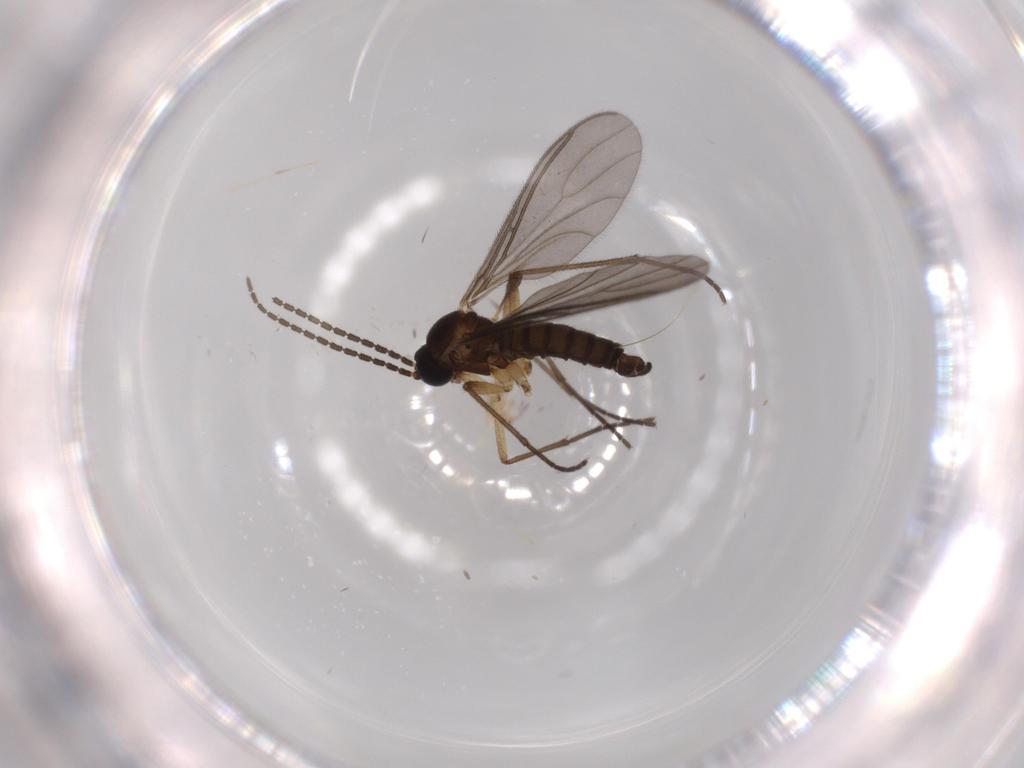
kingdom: Animalia
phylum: Arthropoda
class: Insecta
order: Diptera
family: Sciaridae
